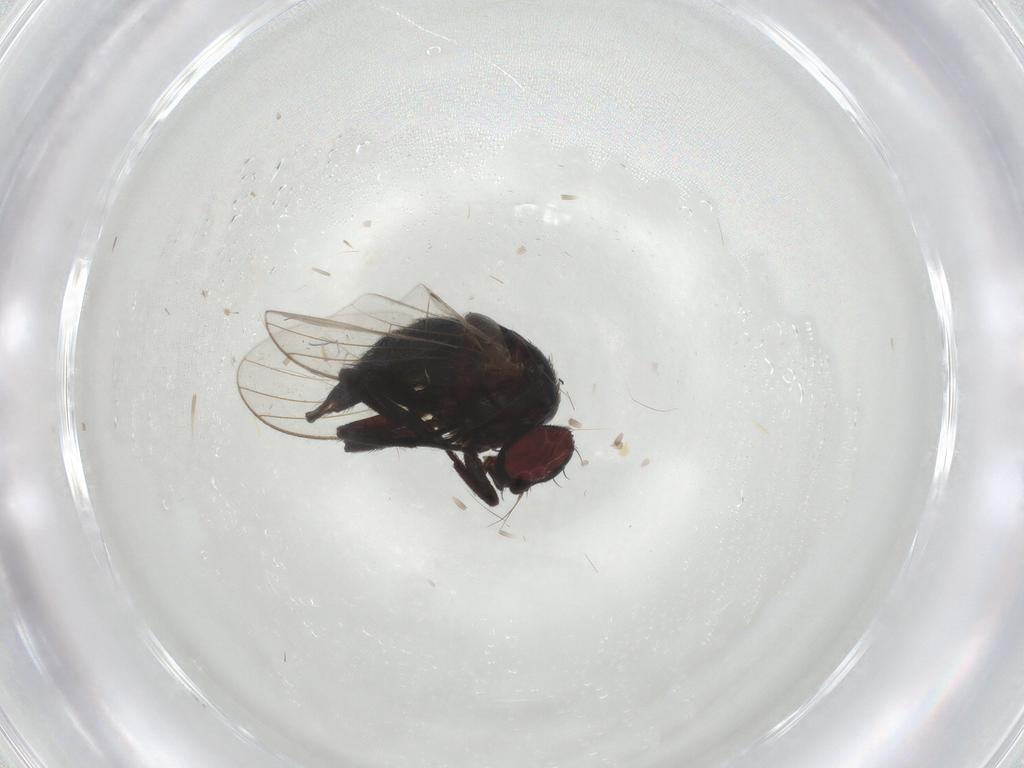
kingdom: Animalia
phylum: Arthropoda
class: Insecta
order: Diptera
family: Agromyzidae
